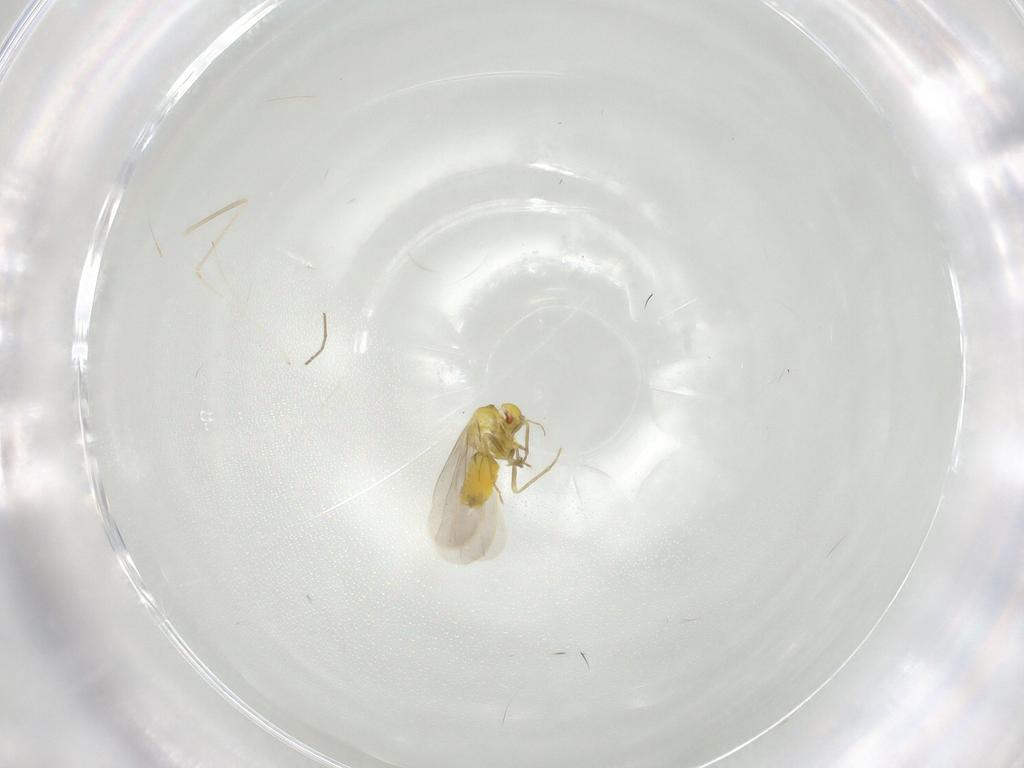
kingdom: Animalia
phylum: Arthropoda
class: Insecta
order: Hemiptera
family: Aleyrodidae
